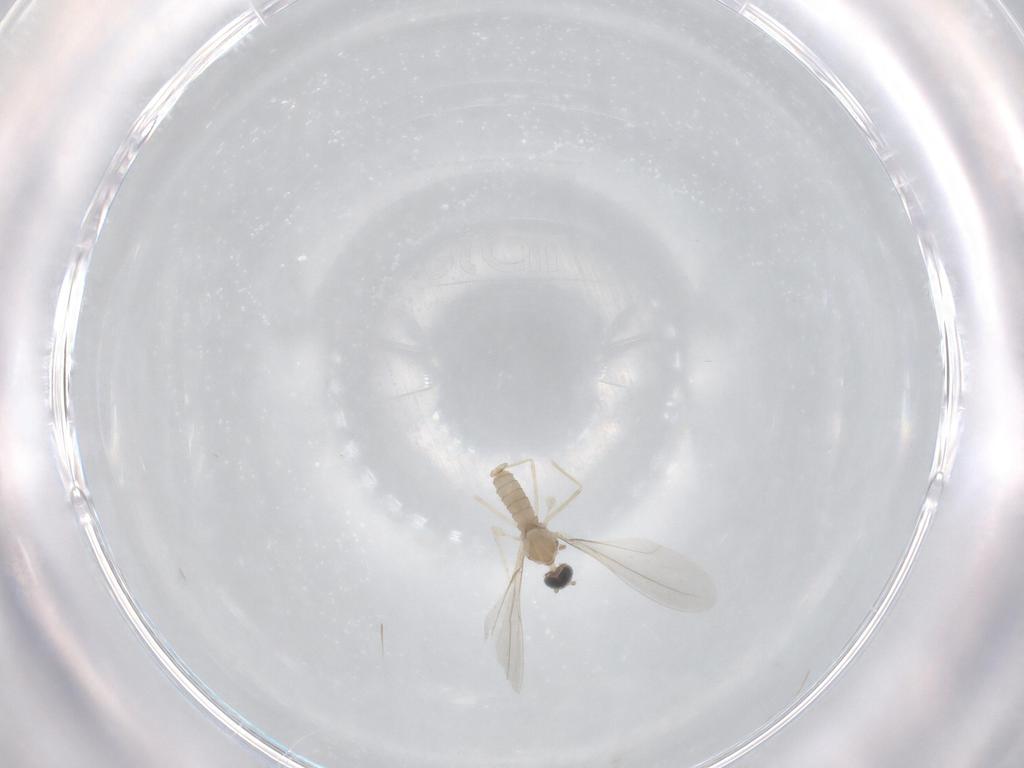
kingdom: Animalia
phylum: Arthropoda
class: Insecta
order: Diptera
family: Cecidomyiidae
